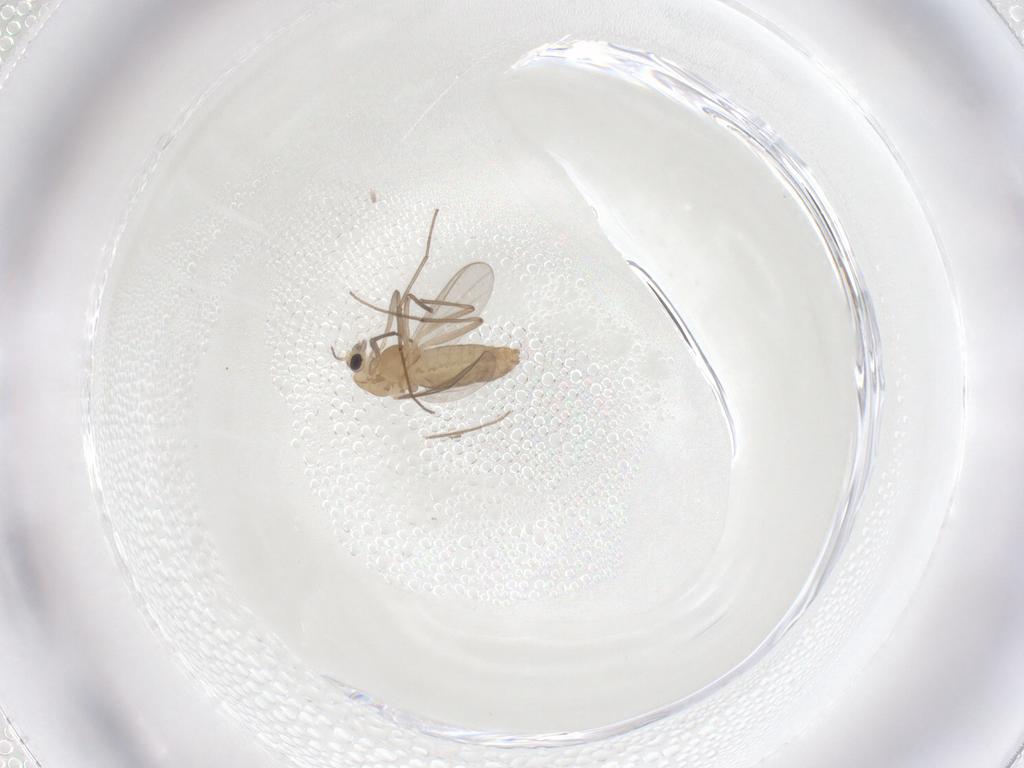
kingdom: Animalia
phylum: Arthropoda
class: Insecta
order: Diptera
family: Chironomidae
